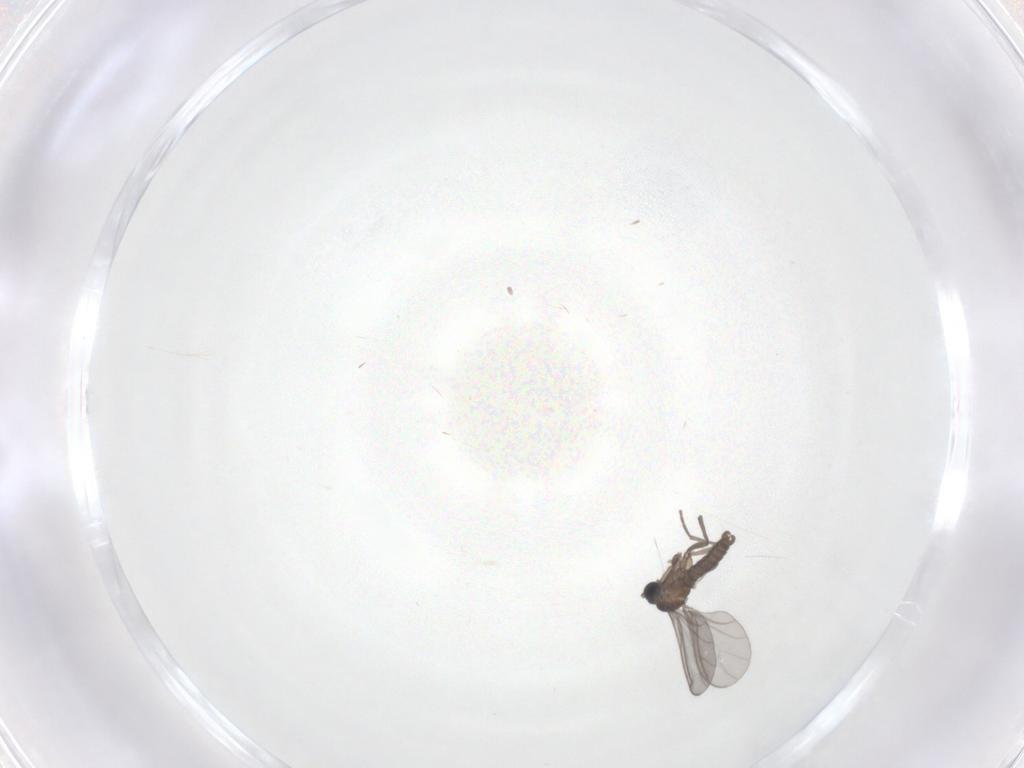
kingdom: Animalia
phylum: Arthropoda
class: Insecta
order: Diptera
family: Sciaridae
